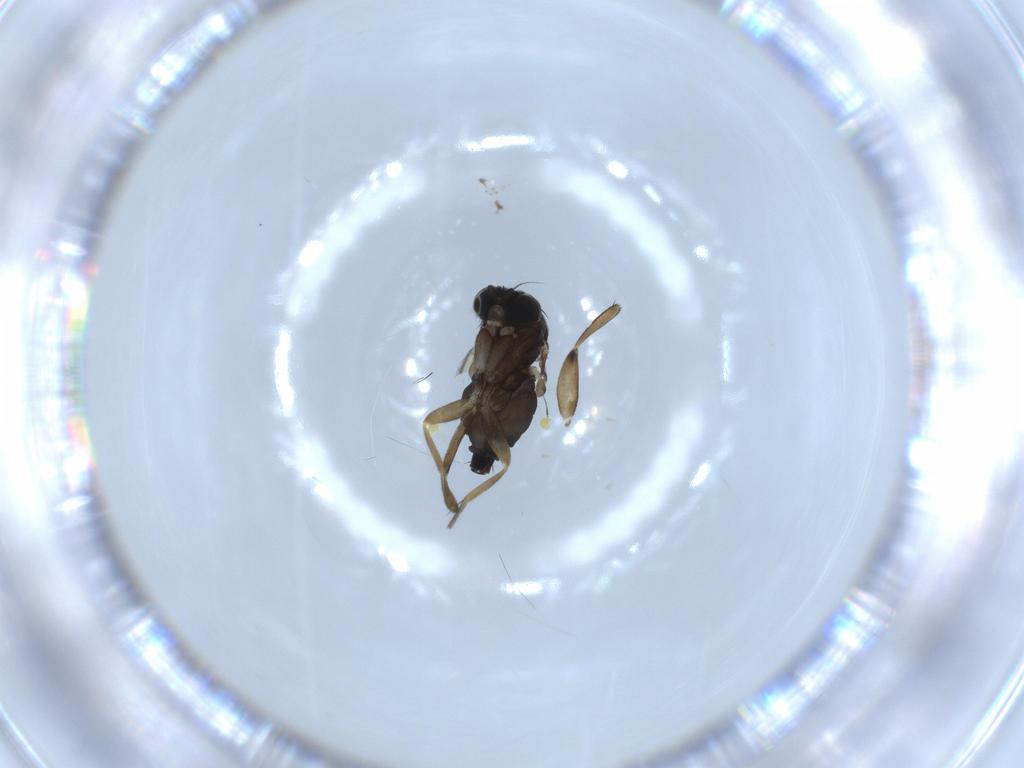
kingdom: Animalia
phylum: Arthropoda
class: Insecta
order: Diptera
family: Phoridae
